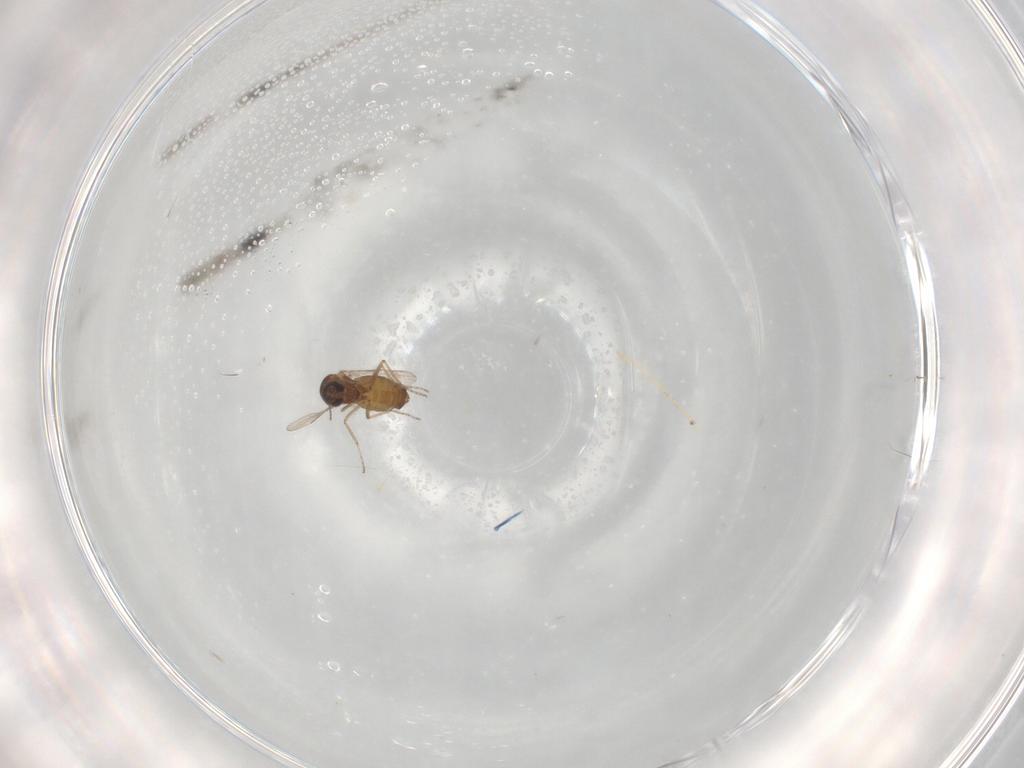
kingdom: Animalia
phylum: Arthropoda
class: Insecta
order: Diptera
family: Ceratopogonidae
